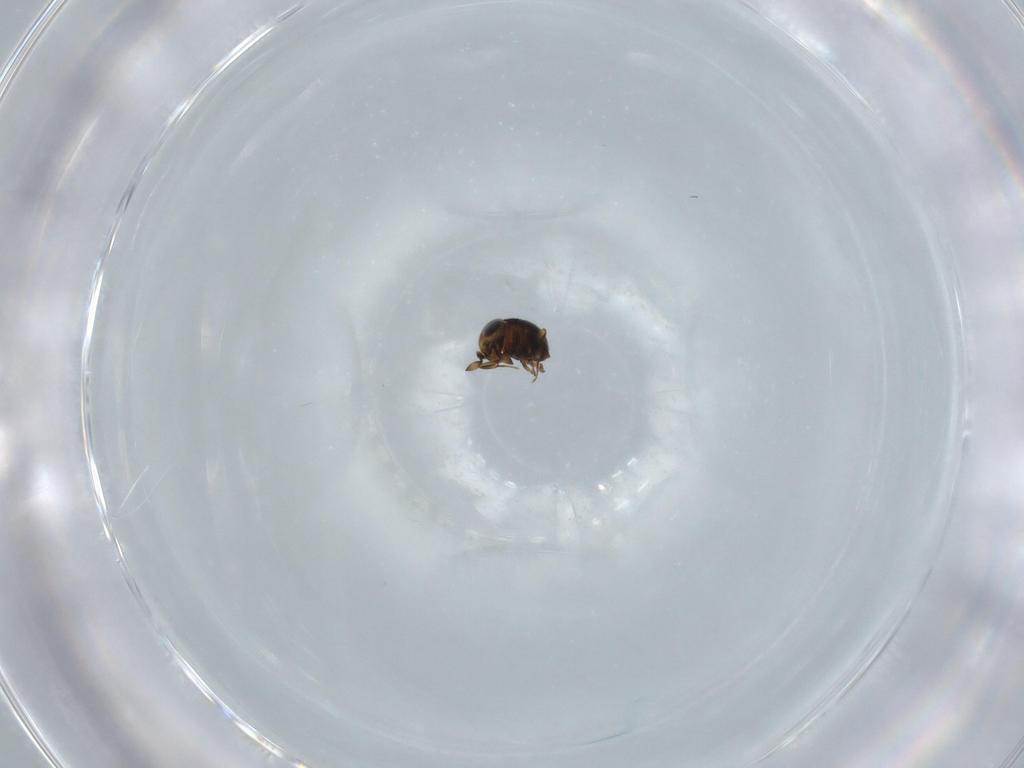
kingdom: Animalia
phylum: Arthropoda
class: Insecta
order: Hymenoptera
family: Scelionidae
